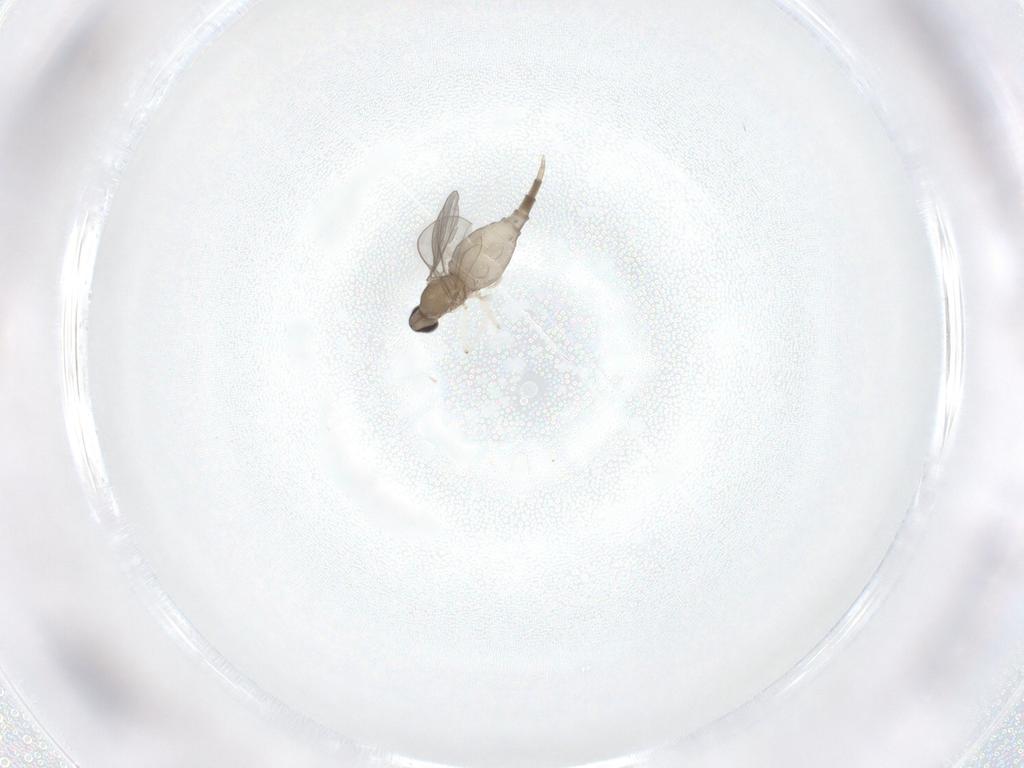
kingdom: Animalia
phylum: Arthropoda
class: Insecta
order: Diptera
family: Cecidomyiidae
